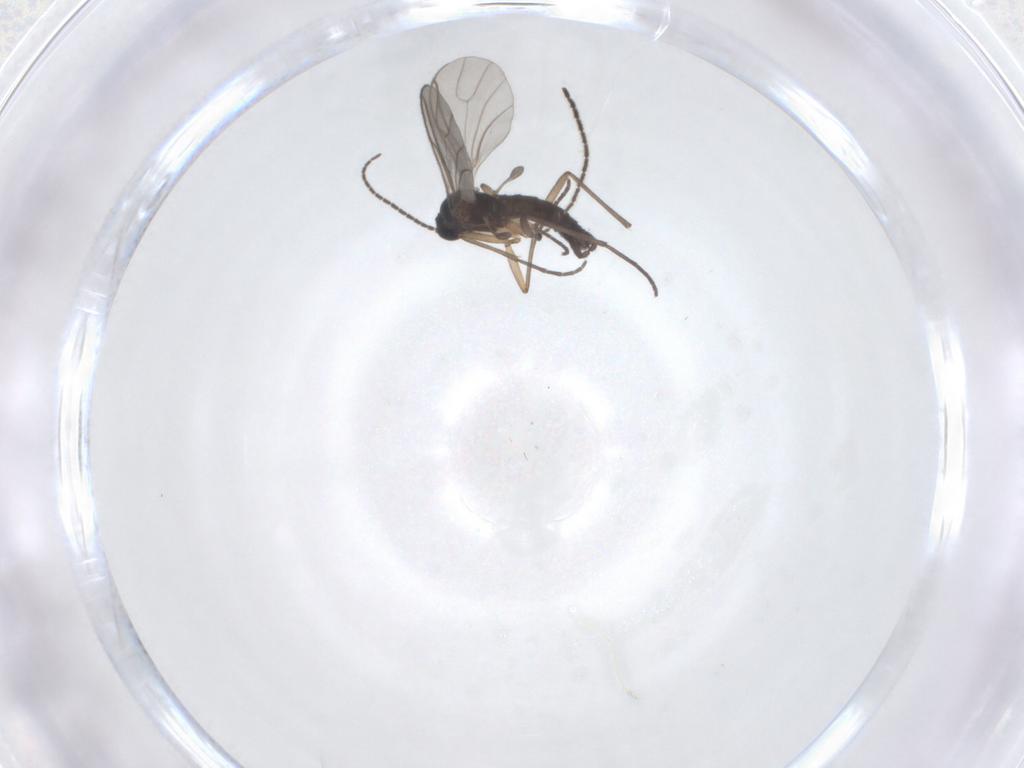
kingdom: Animalia
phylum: Arthropoda
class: Insecta
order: Diptera
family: Sciaridae
